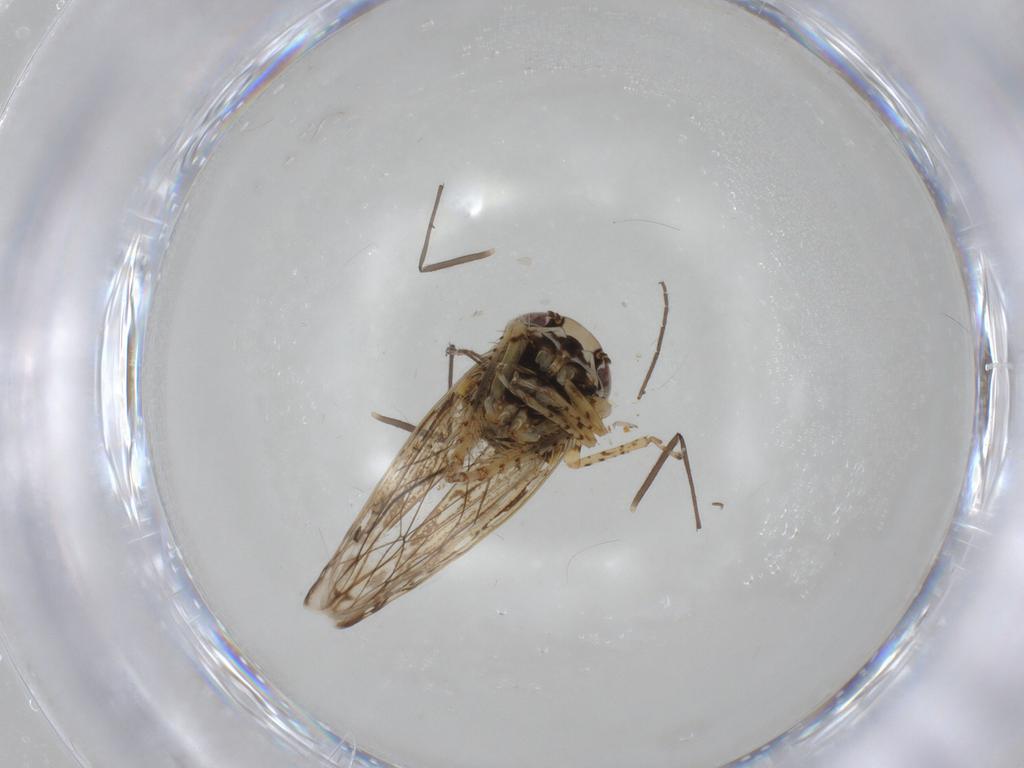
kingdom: Animalia
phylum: Arthropoda
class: Insecta
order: Hemiptera
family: Cicadellidae
